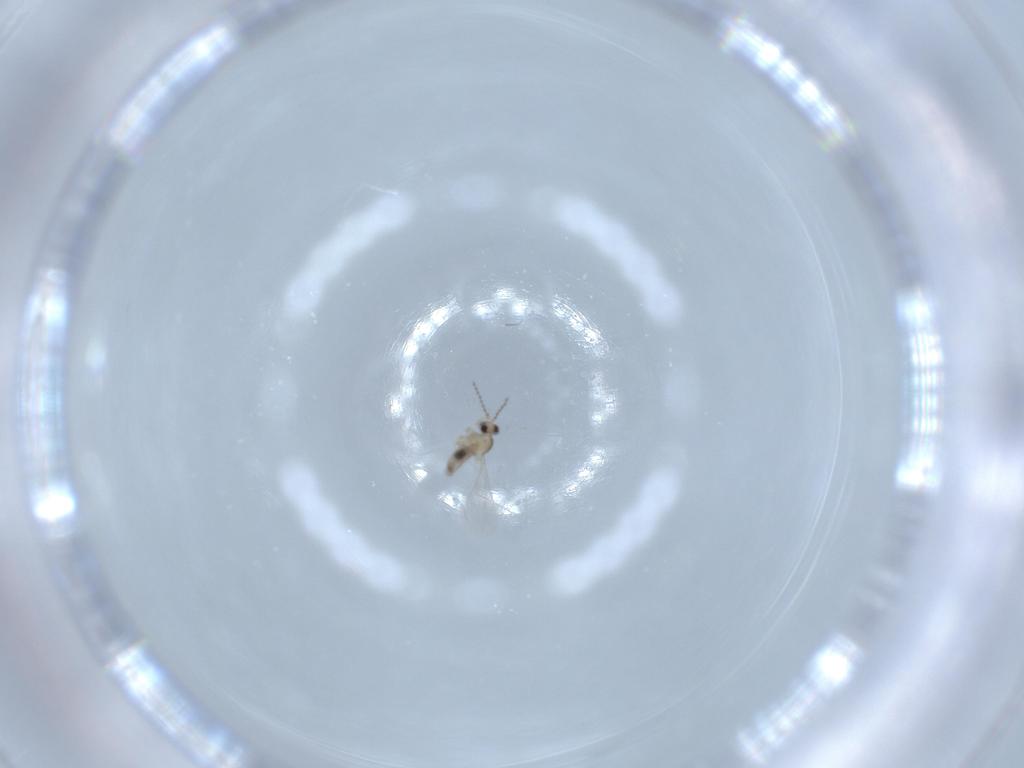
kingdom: Animalia
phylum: Arthropoda
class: Insecta
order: Diptera
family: Cecidomyiidae
